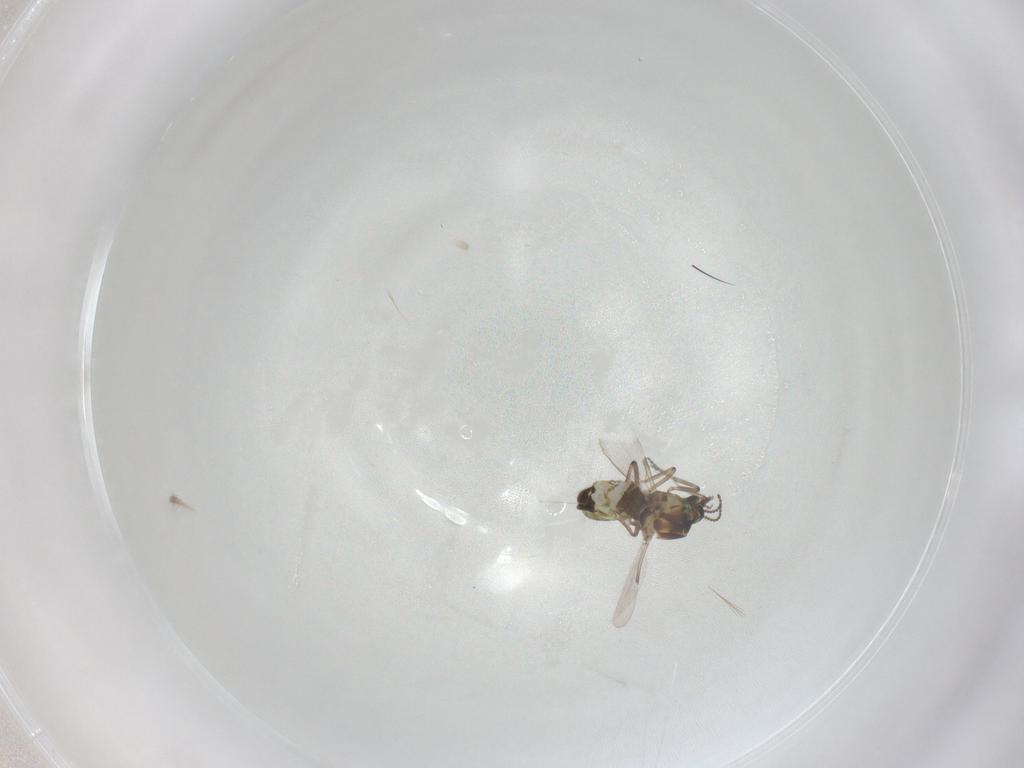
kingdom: Animalia
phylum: Arthropoda
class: Insecta
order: Diptera
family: Ceratopogonidae
